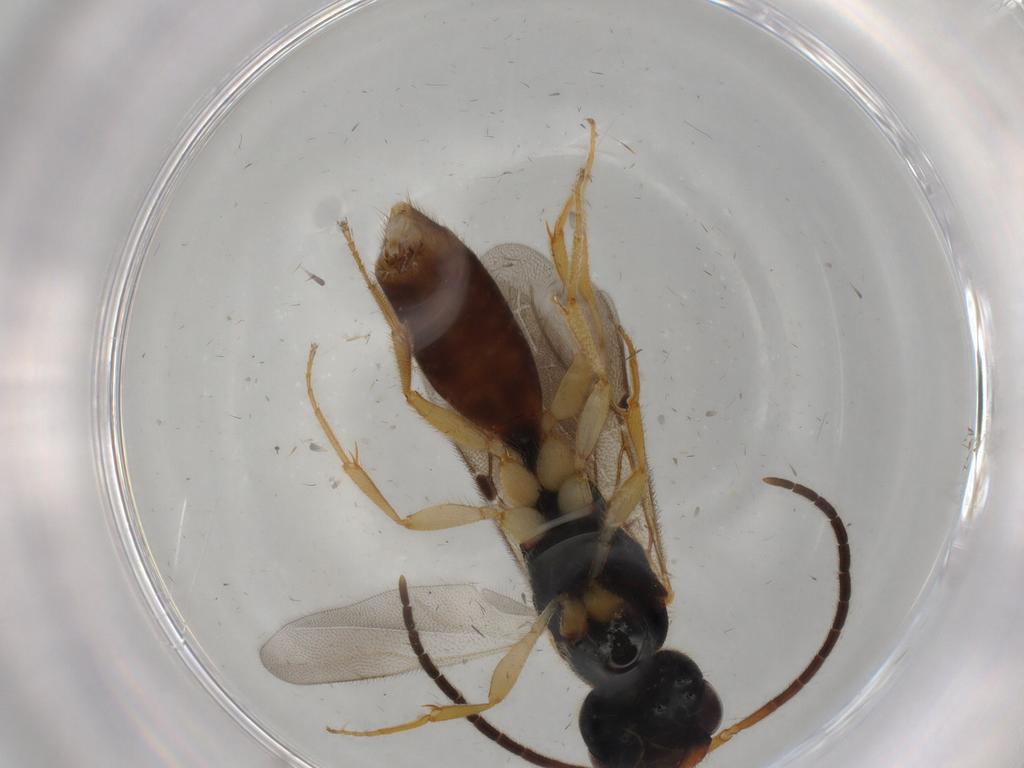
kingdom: Animalia
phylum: Arthropoda
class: Insecta
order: Hymenoptera
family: Bethylidae
